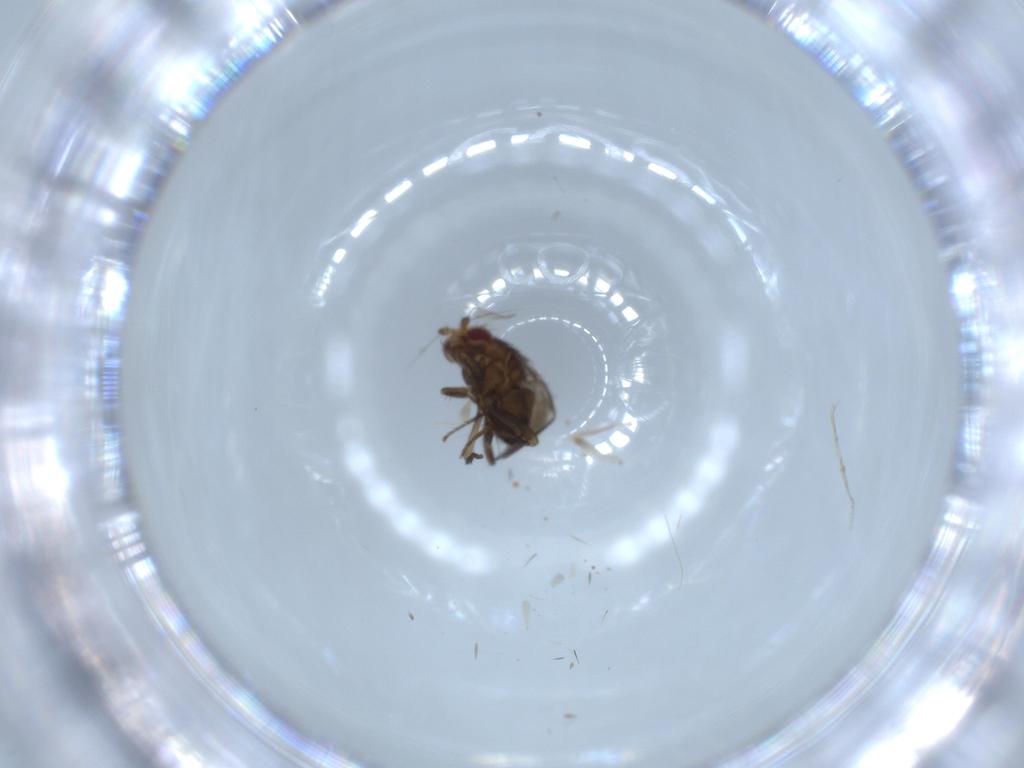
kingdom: Animalia
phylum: Arthropoda
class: Insecta
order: Diptera
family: Sphaeroceridae
